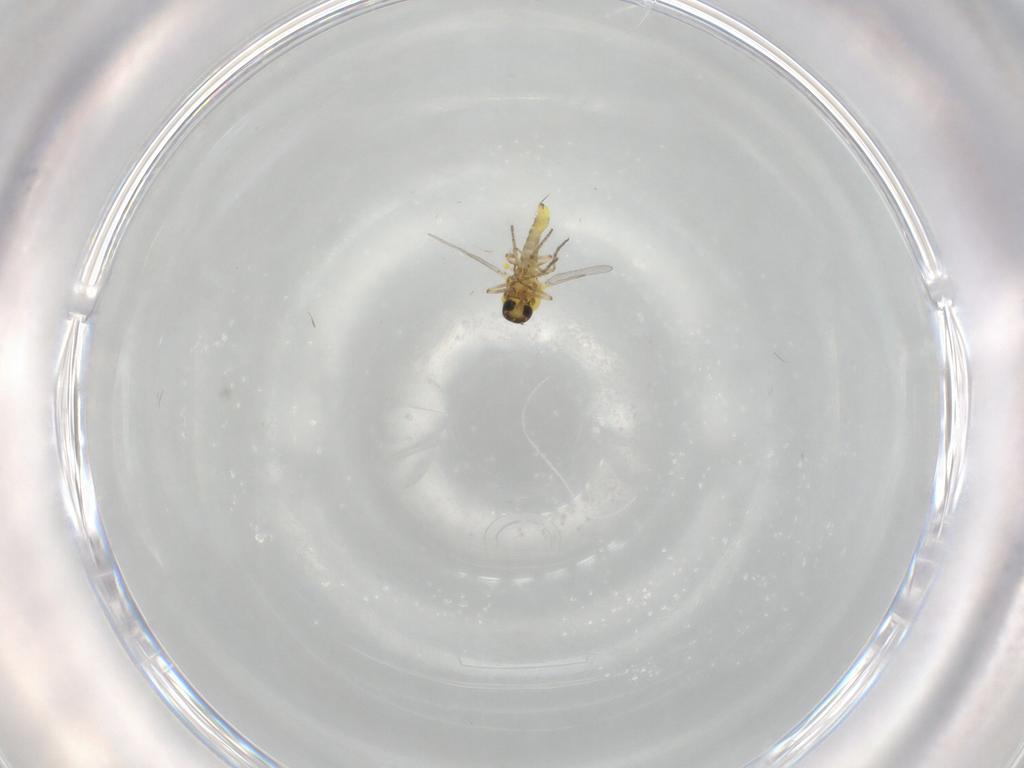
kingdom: Animalia
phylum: Arthropoda
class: Insecta
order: Diptera
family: Ceratopogonidae
